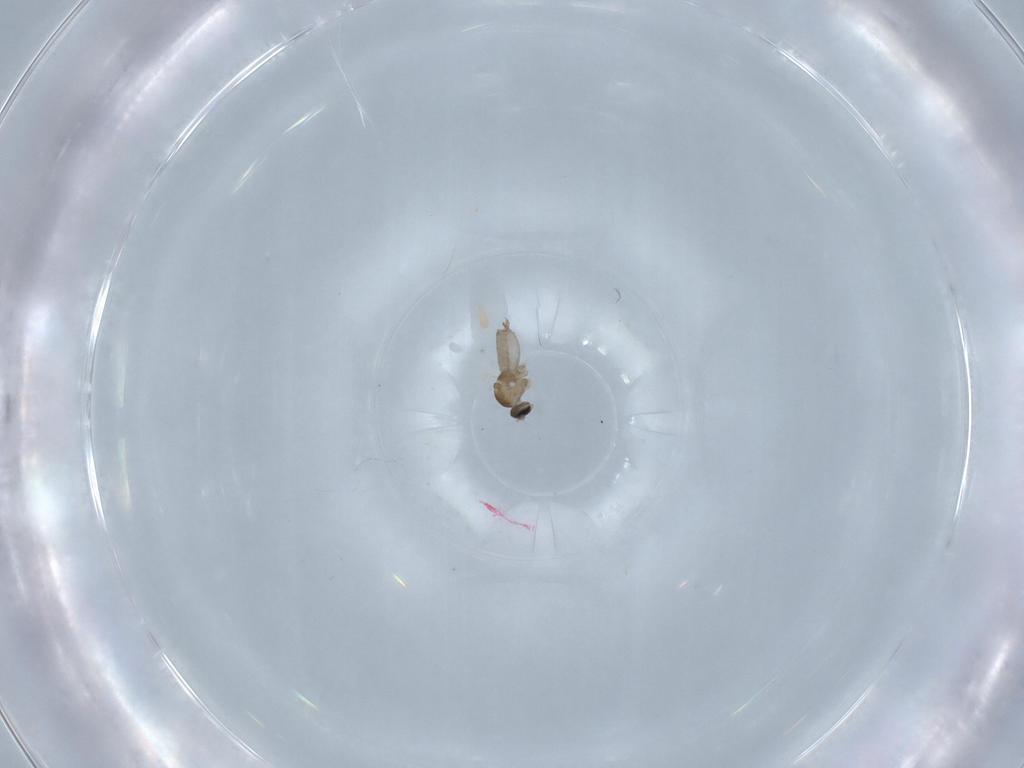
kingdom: Animalia
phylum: Arthropoda
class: Insecta
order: Diptera
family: Cecidomyiidae
